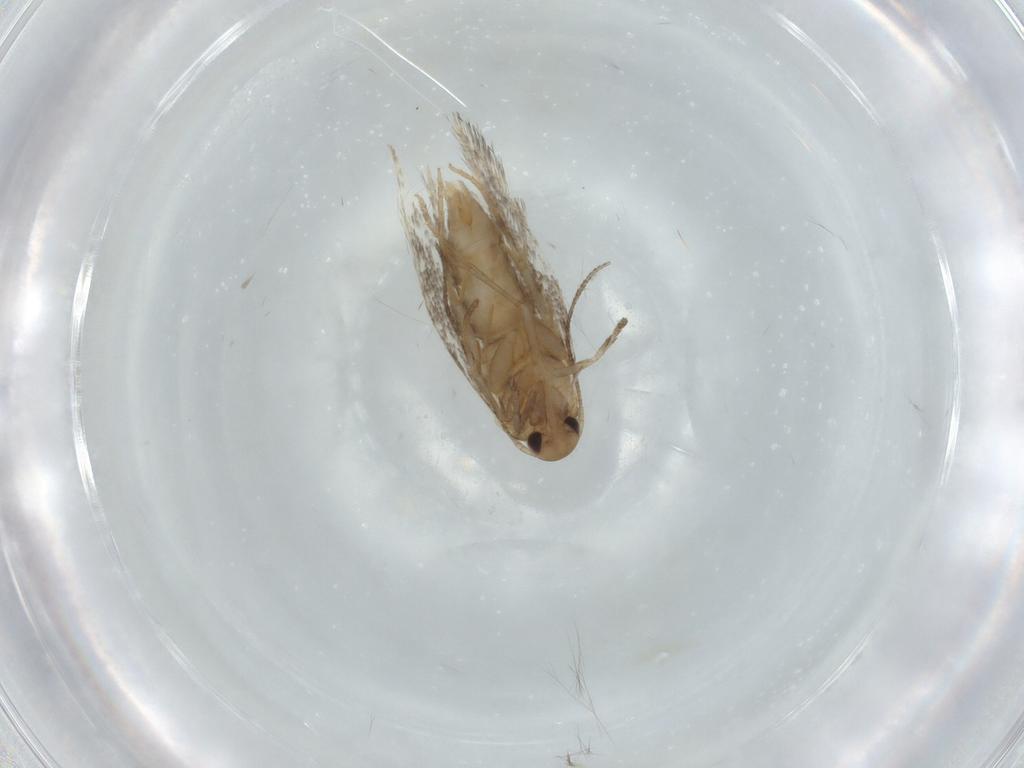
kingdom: Animalia
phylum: Arthropoda
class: Insecta
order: Lepidoptera
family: Elachistidae
